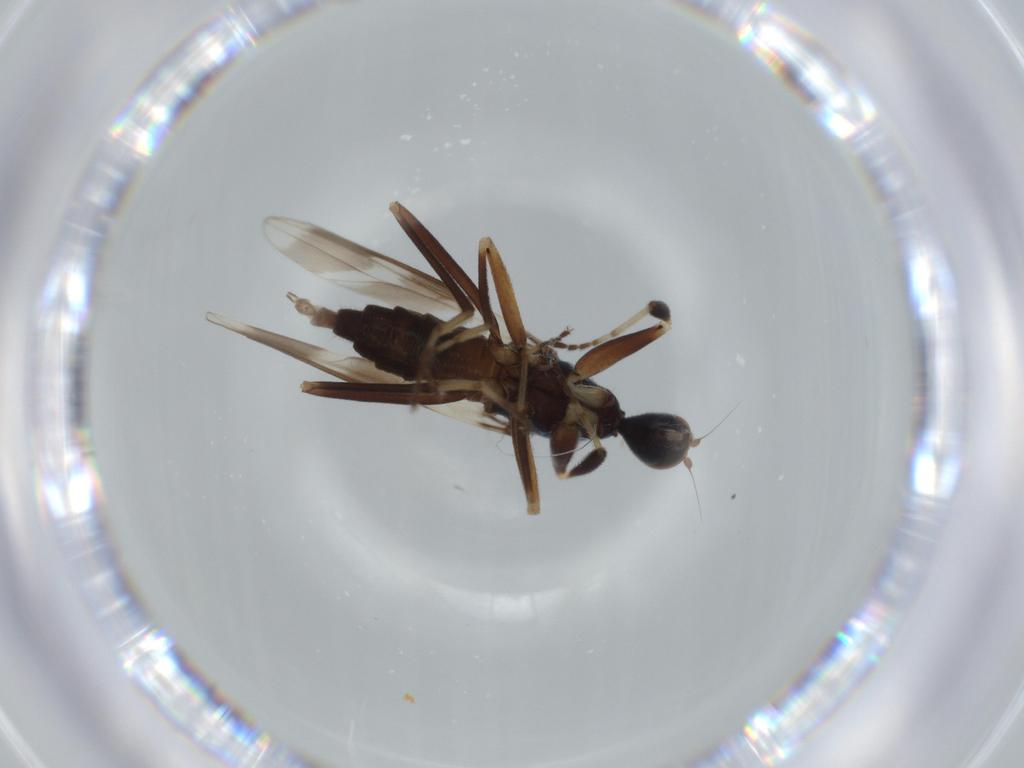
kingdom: Animalia
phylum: Arthropoda
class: Insecta
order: Diptera
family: Hybotidae
